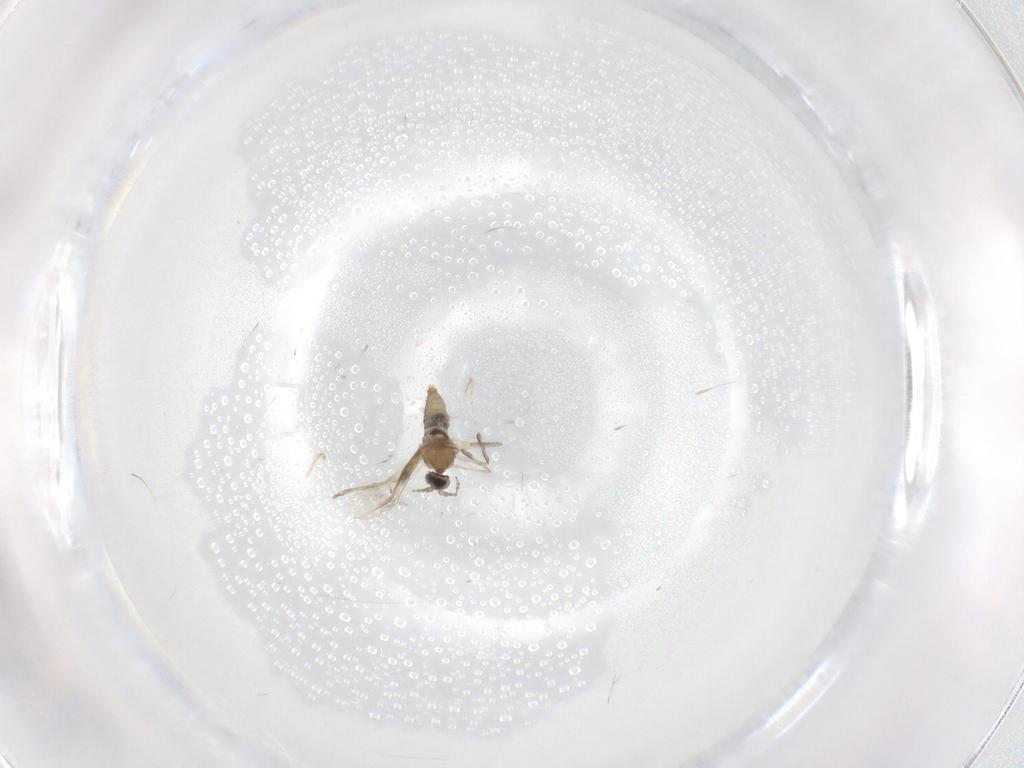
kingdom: Animalia
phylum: Arthropoda
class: Insecta
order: Diptera
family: Cecidomyiidae
